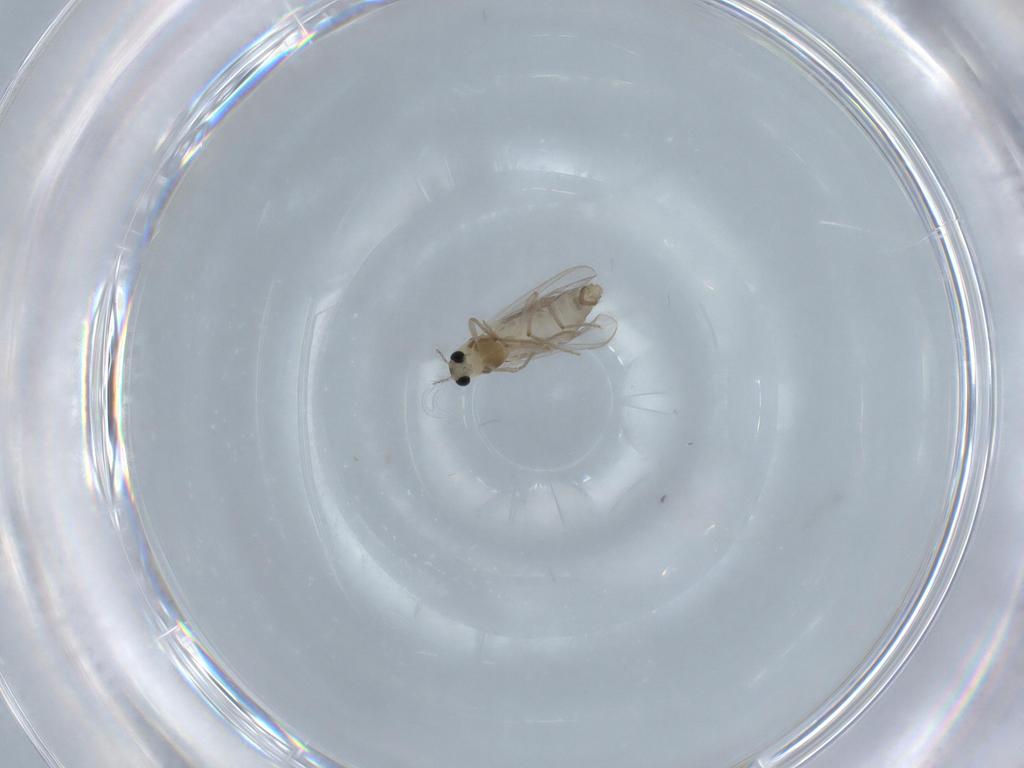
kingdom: Animalia
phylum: Arthropoda
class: Insecta
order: Diptera
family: Chironomidae
